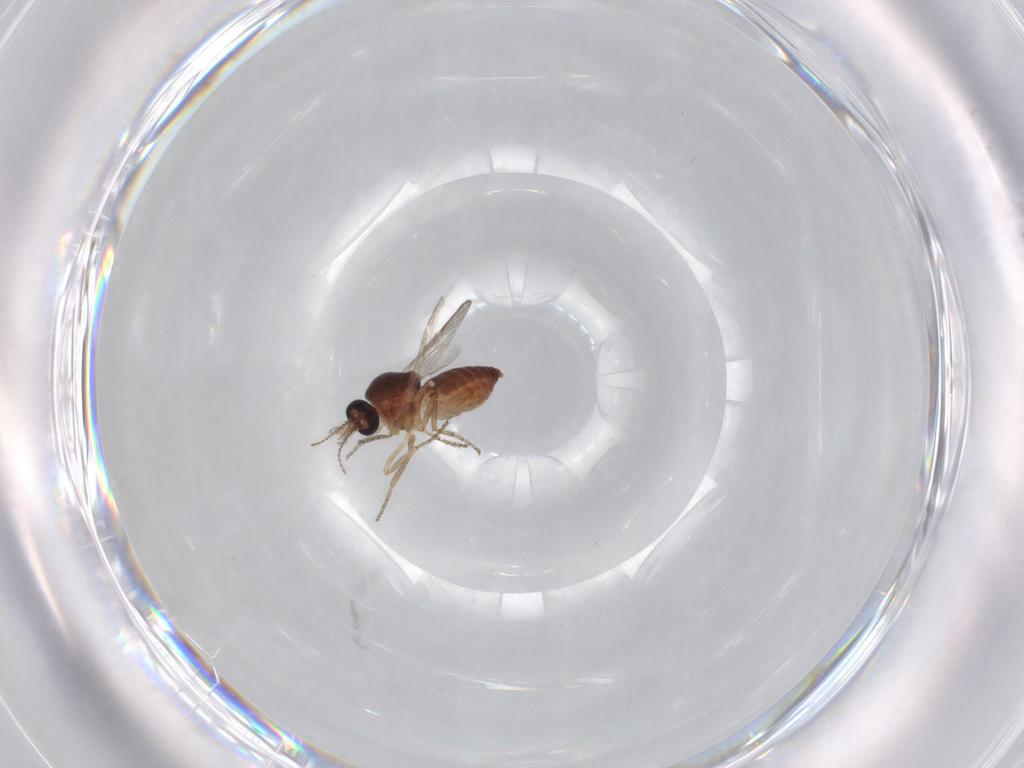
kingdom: Animalia
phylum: Arthropoda
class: Insecta
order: Diptera
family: Ceratopogonidae
